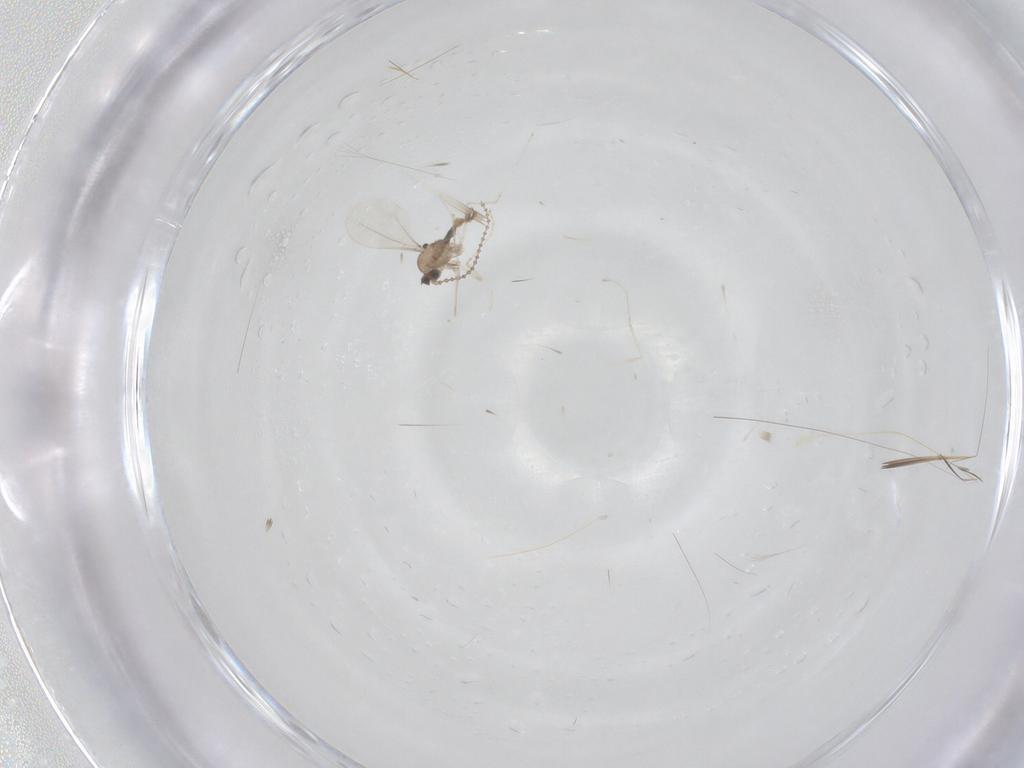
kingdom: Animalia
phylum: Arthropoda
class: Insecta
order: Diptera
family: Cecidomyiidae
